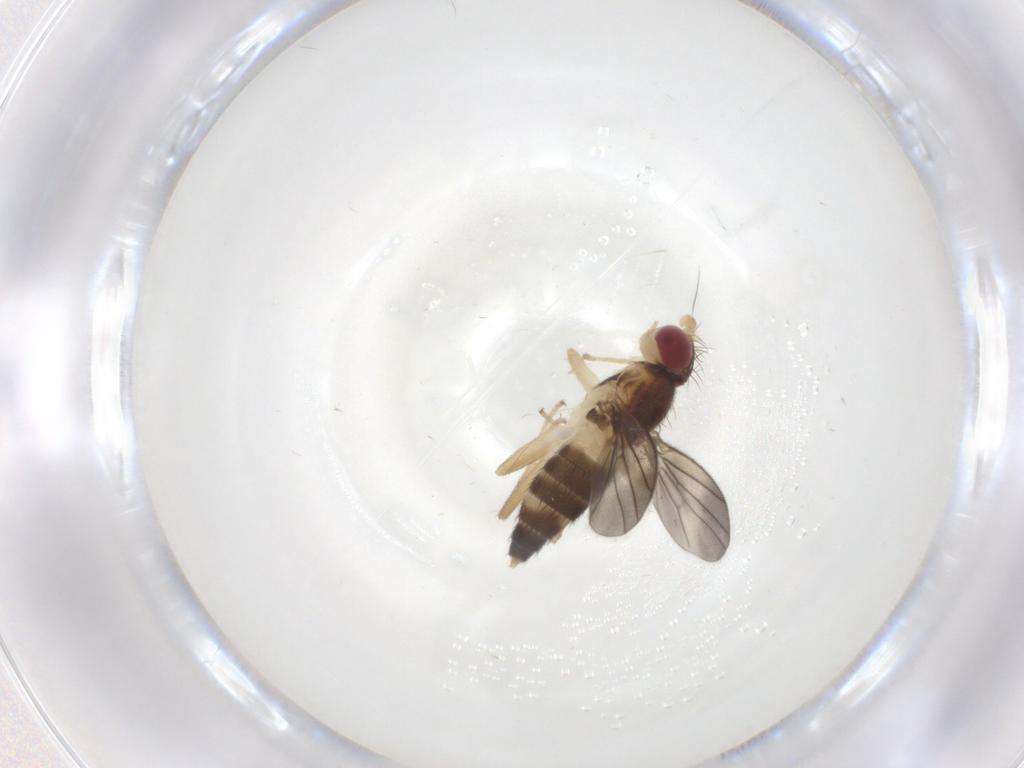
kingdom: Animalia
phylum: Arthropoda
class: Insecta
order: Diptera
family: Clusiidae
